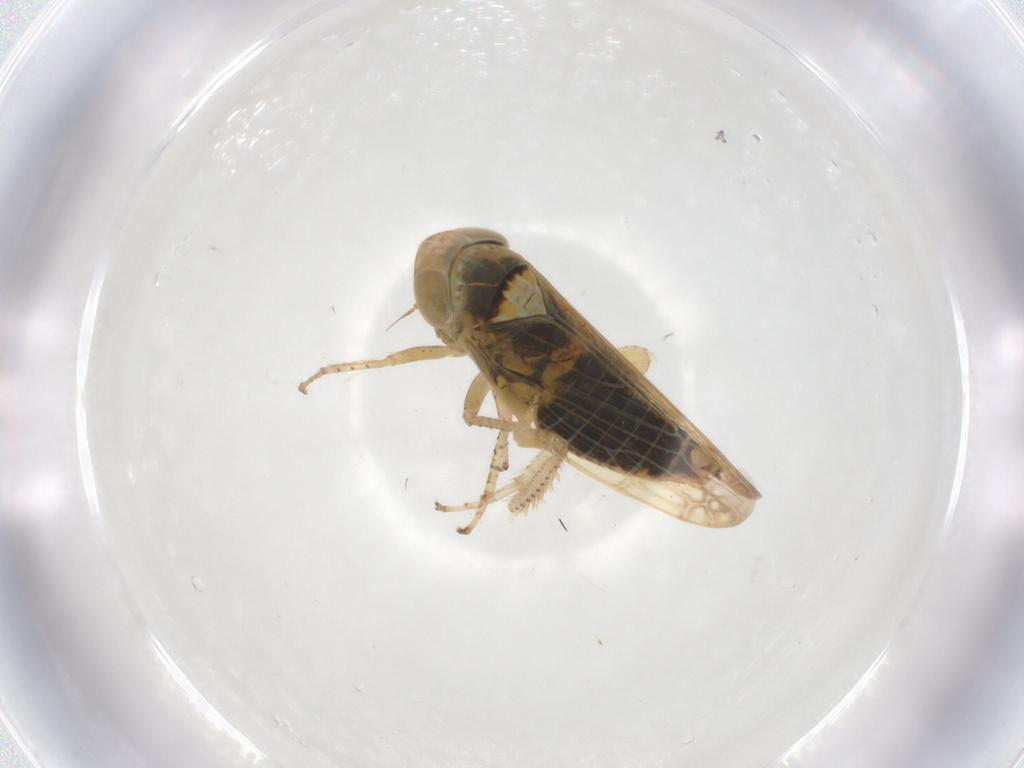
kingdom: Animalia
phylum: Arthropoda
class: Insecta
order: Hemiptera
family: Cicadellidae
